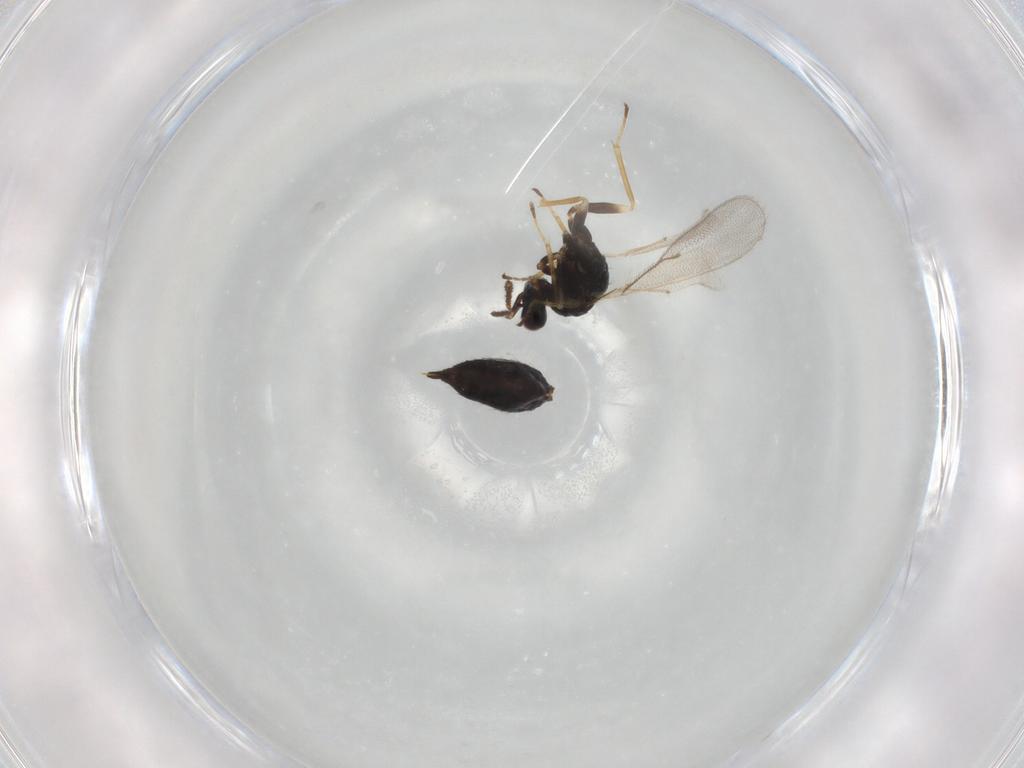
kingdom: Animalia
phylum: Arthropoda
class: Insecta
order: Hymenoptera
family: Eulophidae
